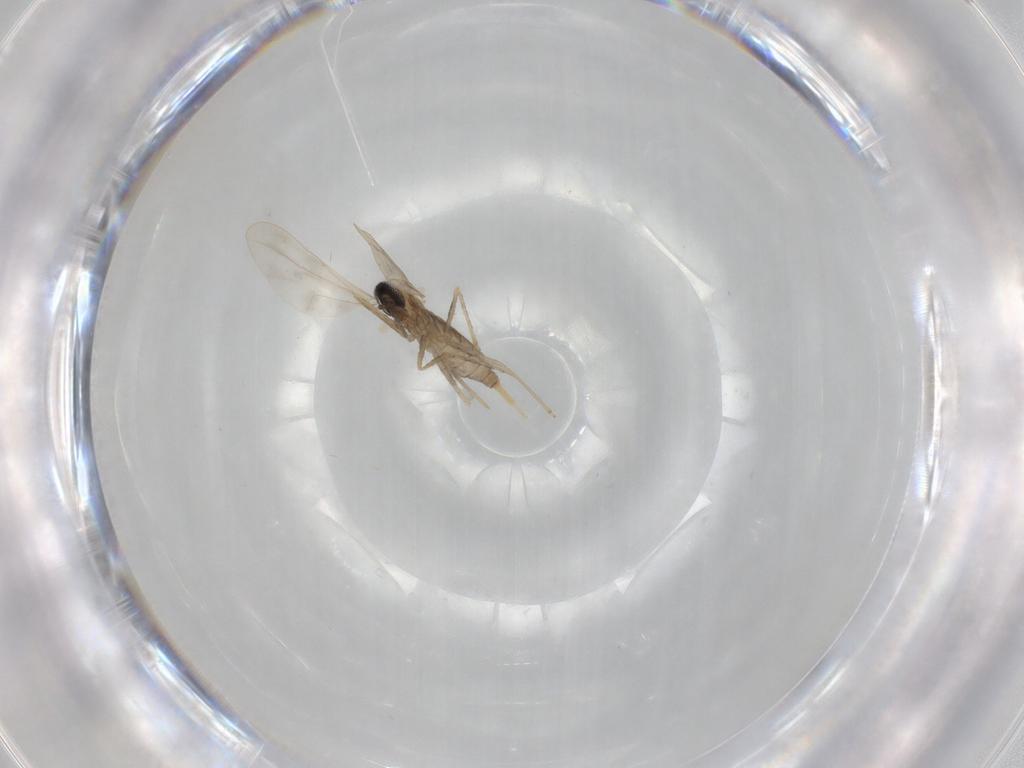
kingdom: Animalia
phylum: Arthropoda
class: Insecta
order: Diptera
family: Cecidomyiidae
